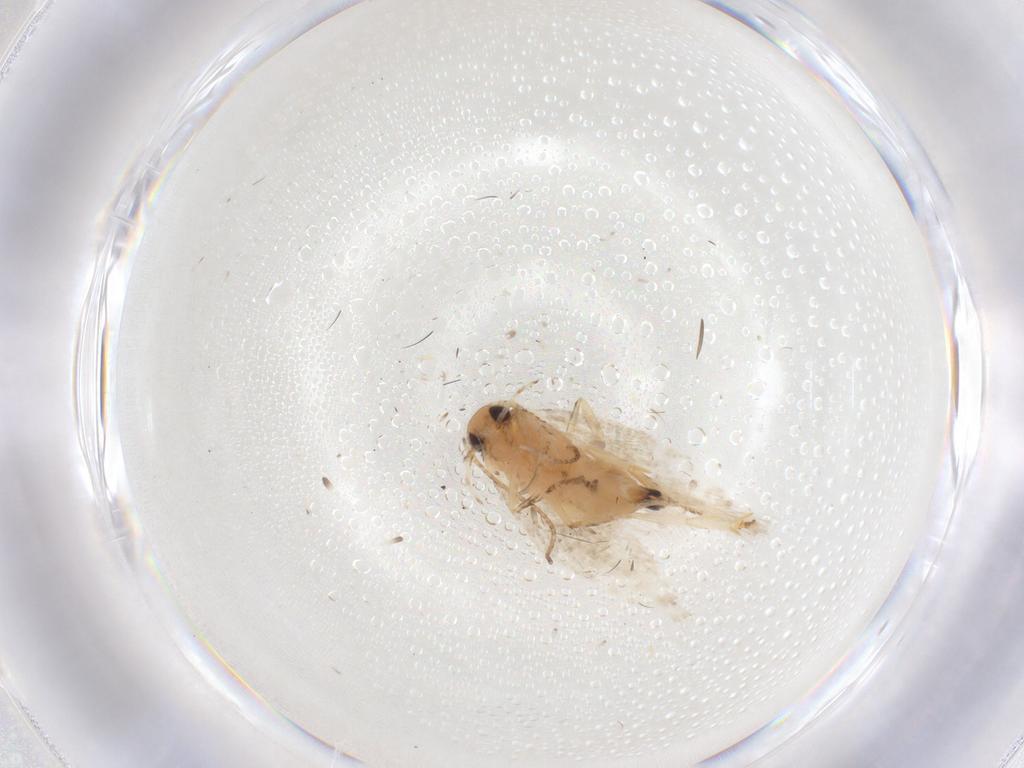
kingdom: Animalia
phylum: Arthropoda
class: Insecta
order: Lepidoptera
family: Gelechiidae
